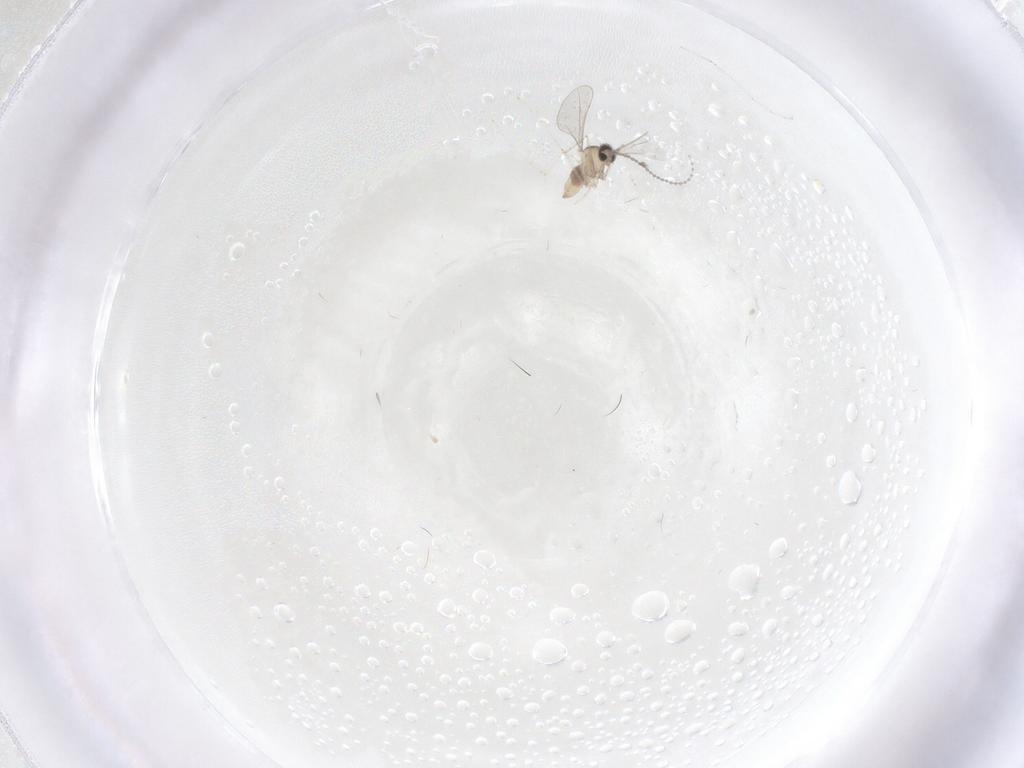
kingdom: Animalia
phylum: Arthropoda
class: Insecta
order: Diptera
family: Cecidomyiidae
